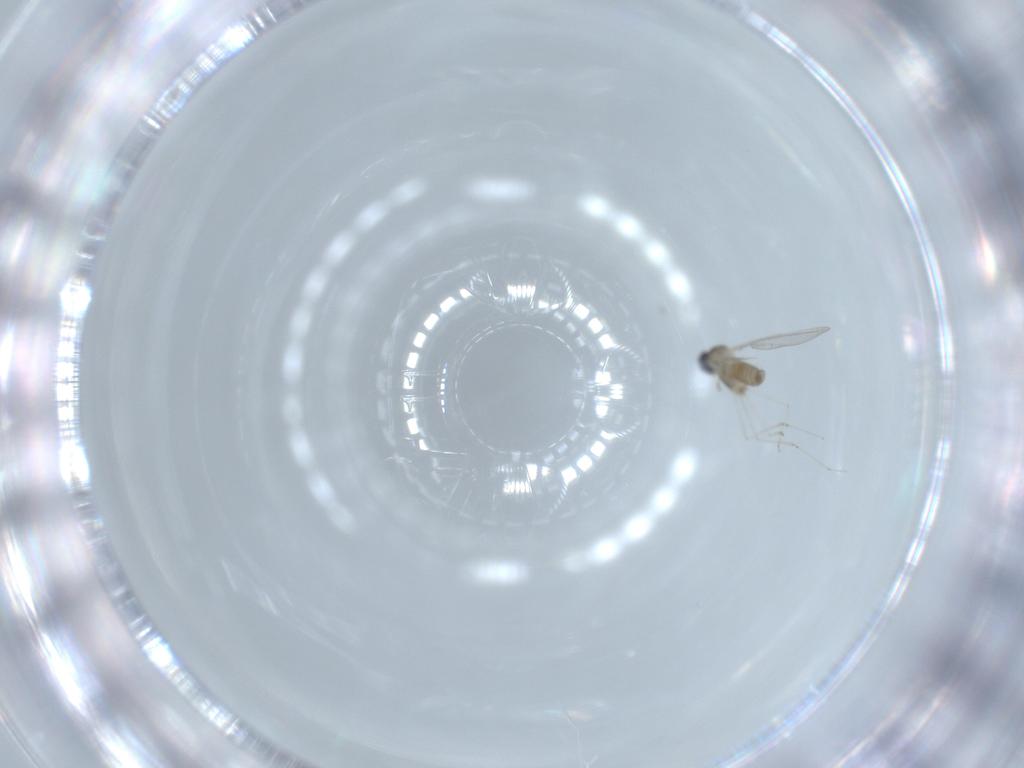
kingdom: Animalia
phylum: Arthropoda
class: Insecta
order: Diptera
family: Cecidomyiidae
